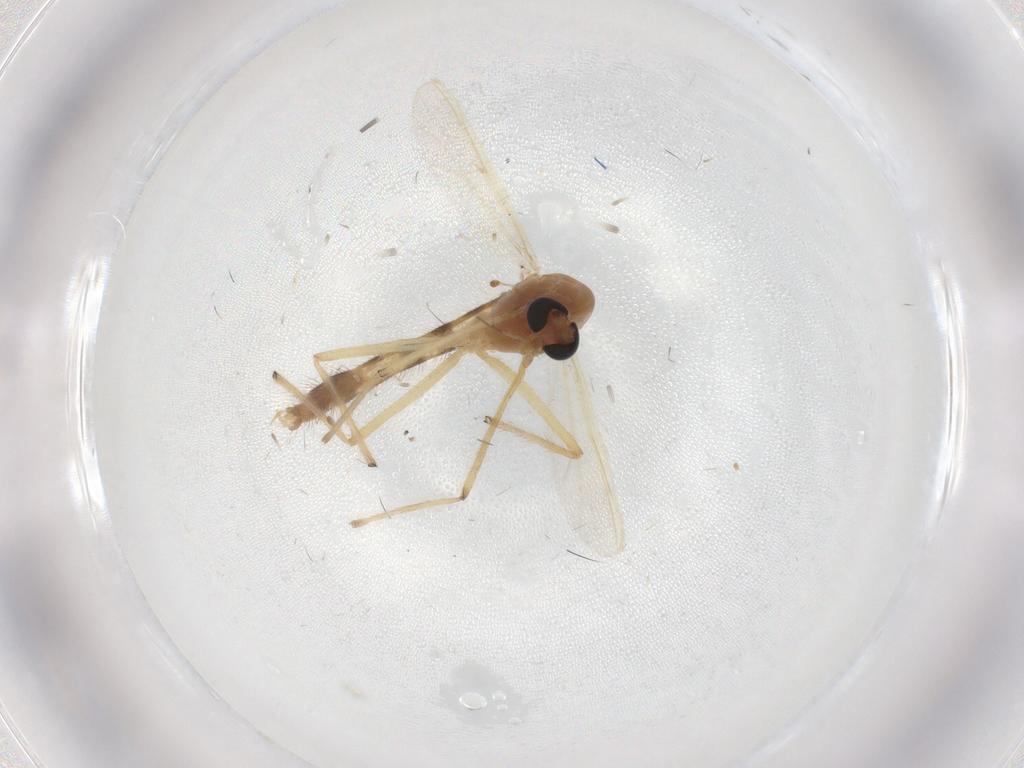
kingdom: Animalia
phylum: Arthropoda
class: Insecta
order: Diptera
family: Chironomidae
